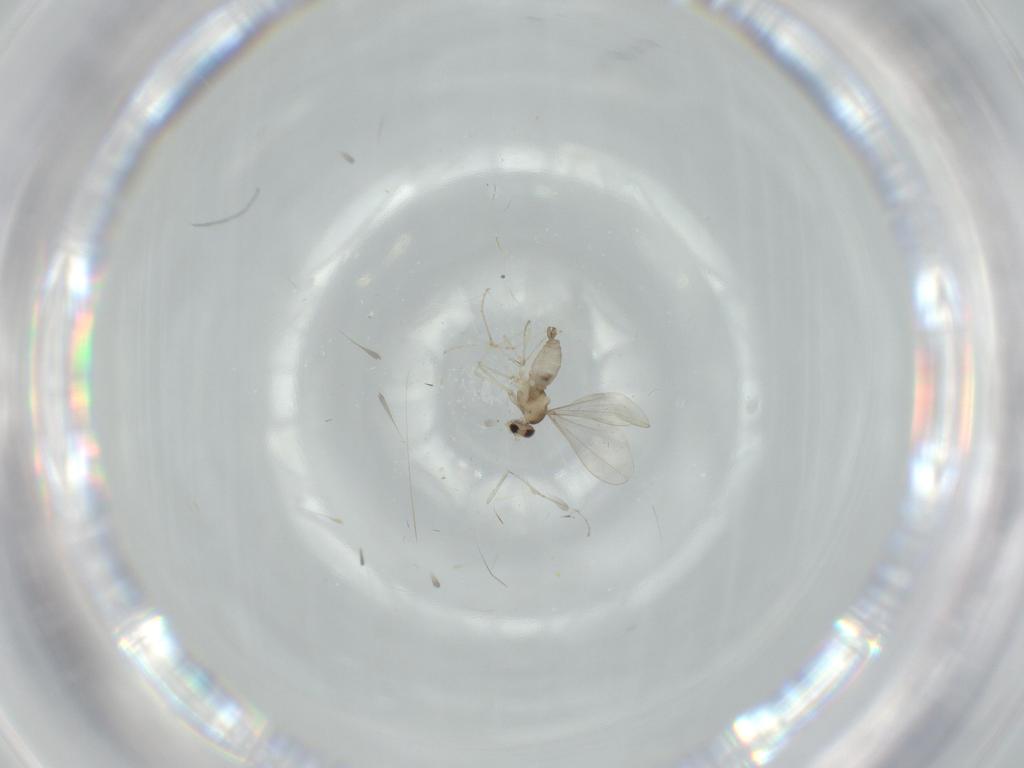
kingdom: Animalia
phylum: Arthropoda
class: Insecta
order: Diptera
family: Cecidomyiidae
